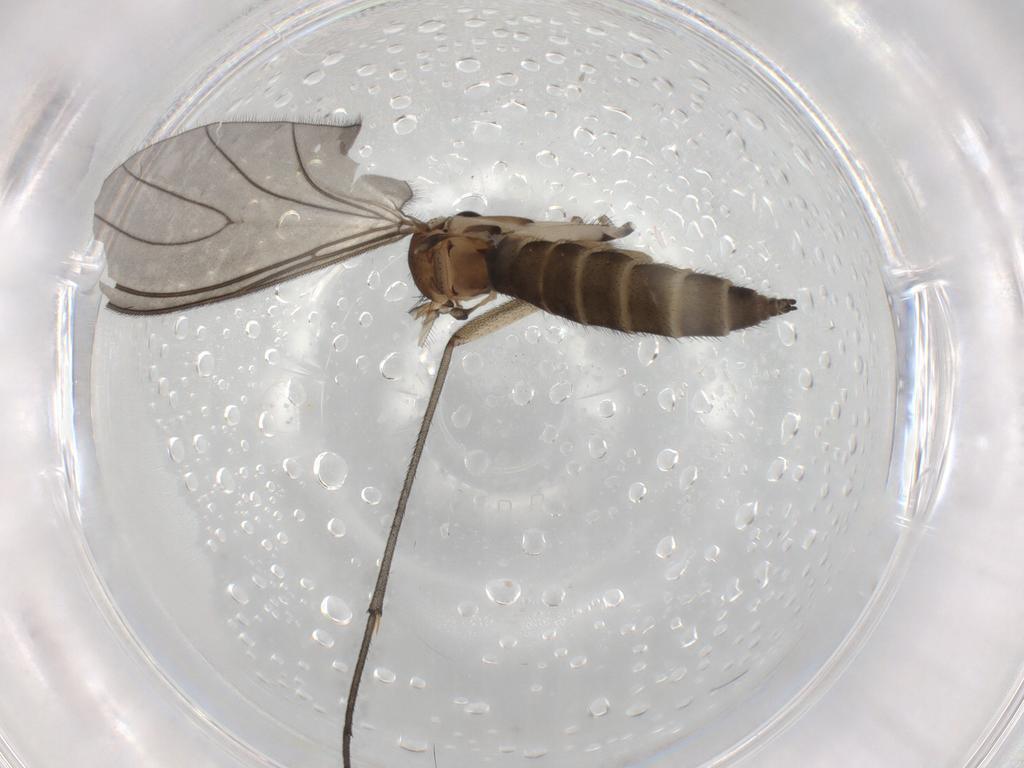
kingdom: Animalia
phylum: Arthropoda
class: Insecta
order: Diptera
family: Sciaridae
